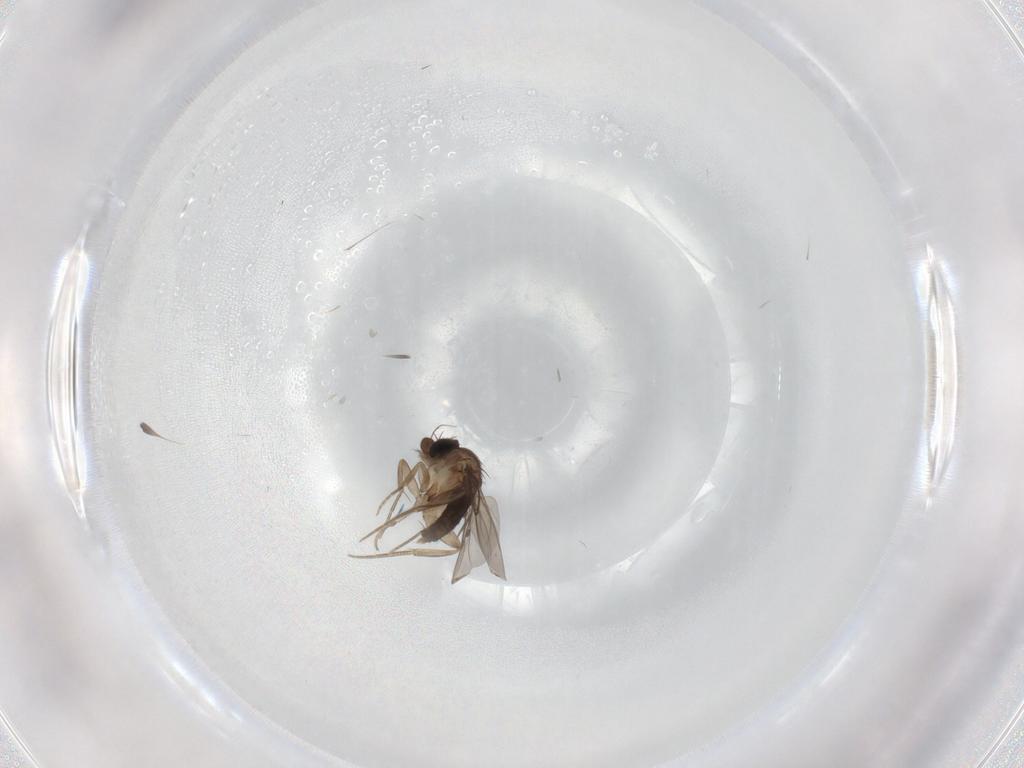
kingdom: Animalia
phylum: Arthropoda
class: Insecta
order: Diptera
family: Phoridae
